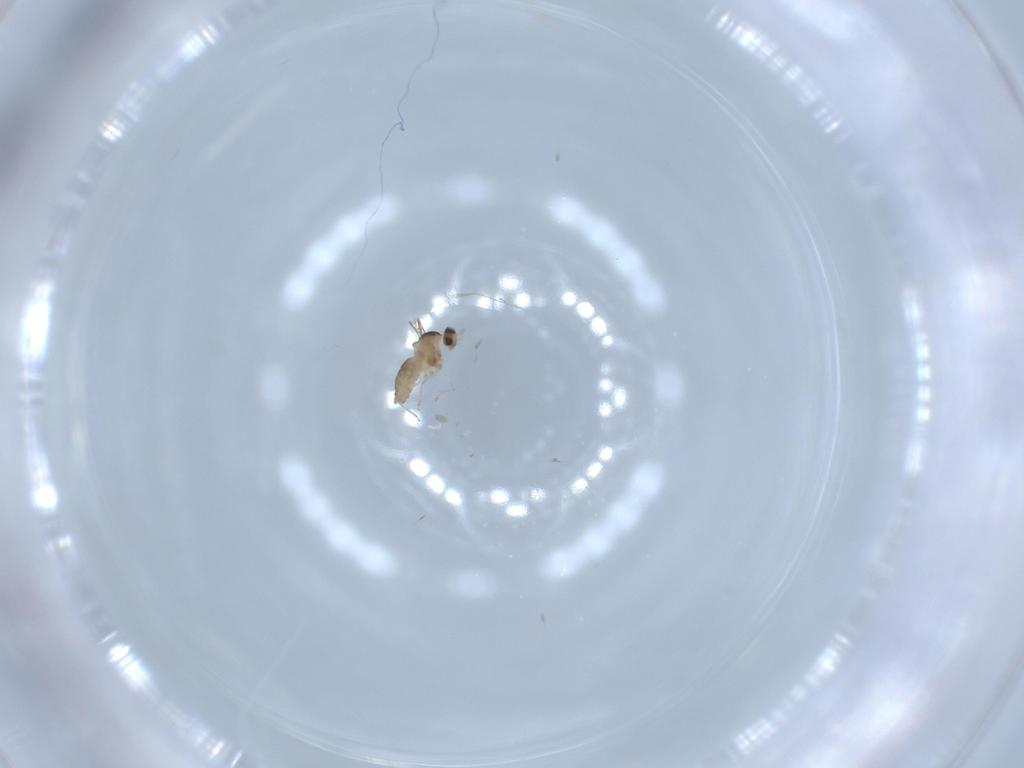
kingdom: Animalia
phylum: Arthropoda
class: Insecta
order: Diptera
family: Cecidomyiidae
